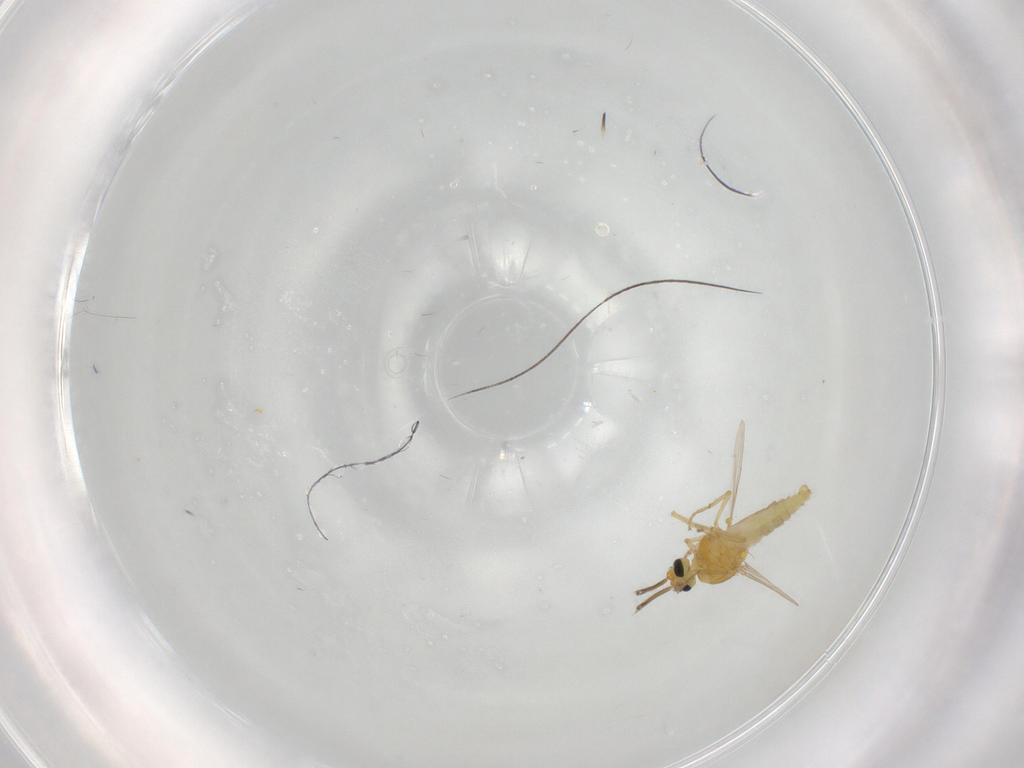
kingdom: Animalia
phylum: Arthropoda
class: Insecta
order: Diptera
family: Ceratopogonidae
